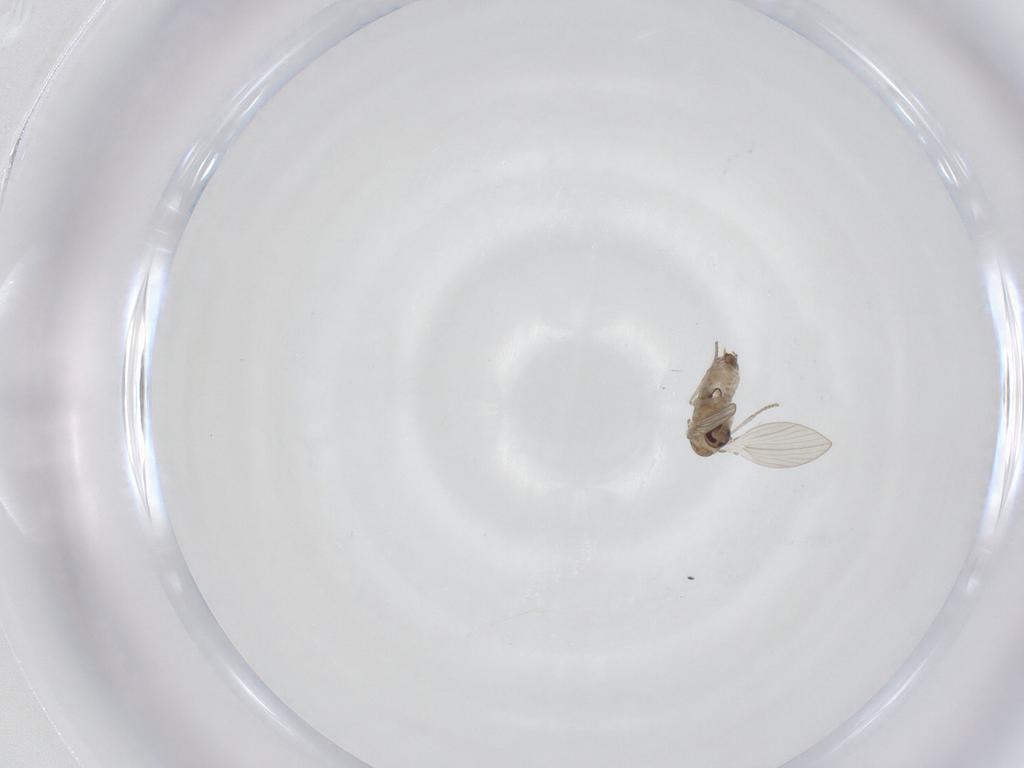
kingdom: Animalia
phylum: Arthropoda
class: Insecta
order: Diptera
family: Psychodidae
